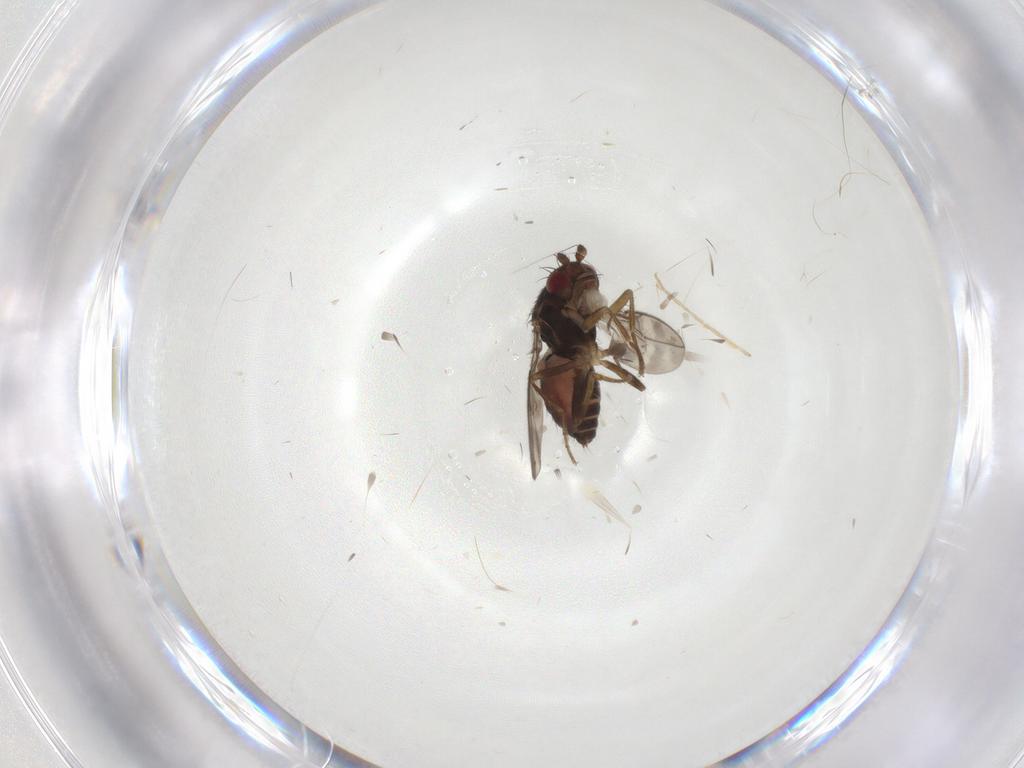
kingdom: Animalia
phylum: Arthropoda
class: Insecta
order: Diptera
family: Sphaeroceridae
